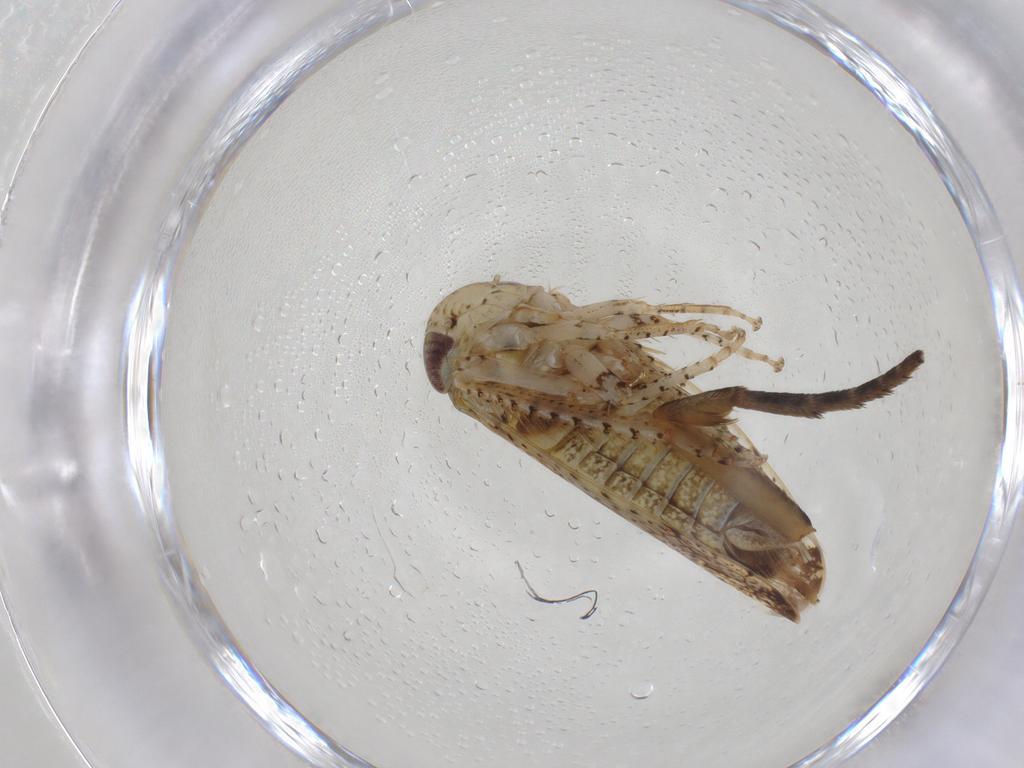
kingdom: Animalia
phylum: Arthropoda
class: Insecta
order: Hemiptera
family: Cicadellidae
